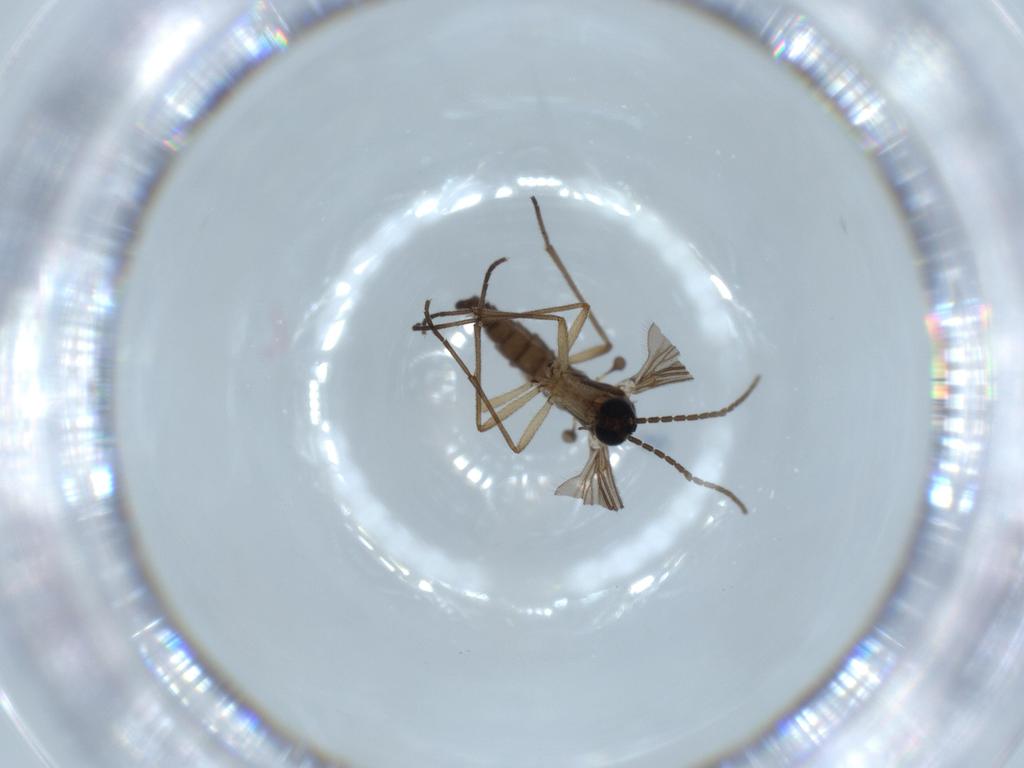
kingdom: Animalia
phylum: Arthropoda
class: Insecta
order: Diptera
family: Sciaridae
